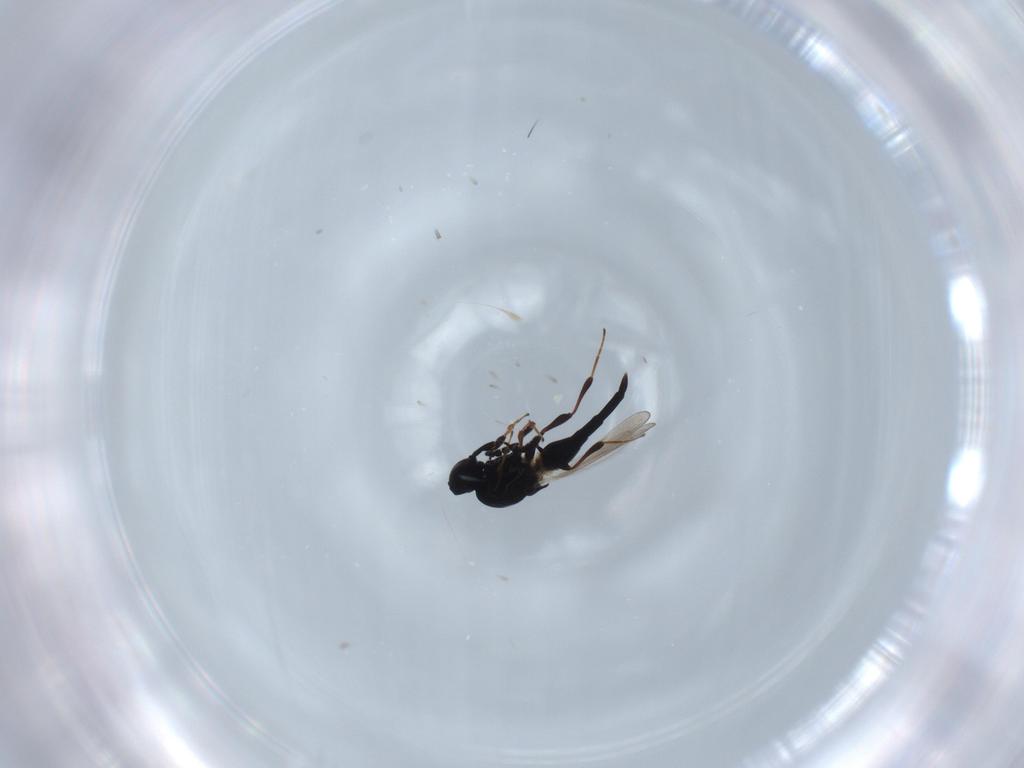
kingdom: Animalia
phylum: Arthropoda
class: Insecta
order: Hymenoptera
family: Platygastridae
